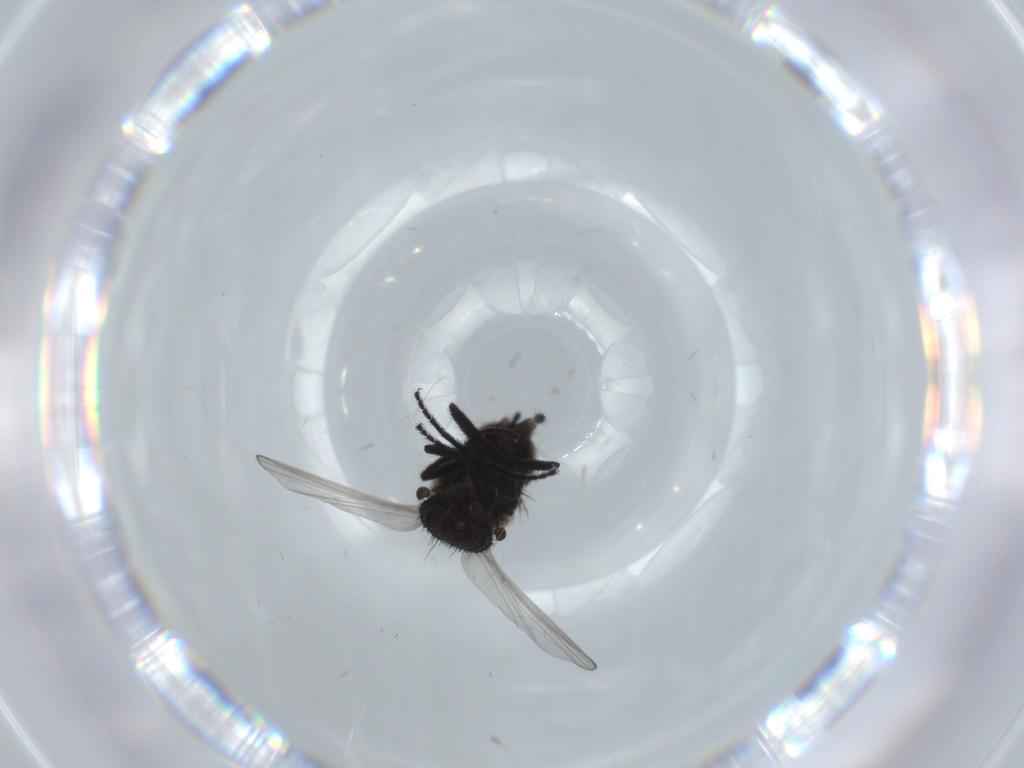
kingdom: Animalia
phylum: Arthropoda
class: Insecta
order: Diptera
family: Milichiidae
